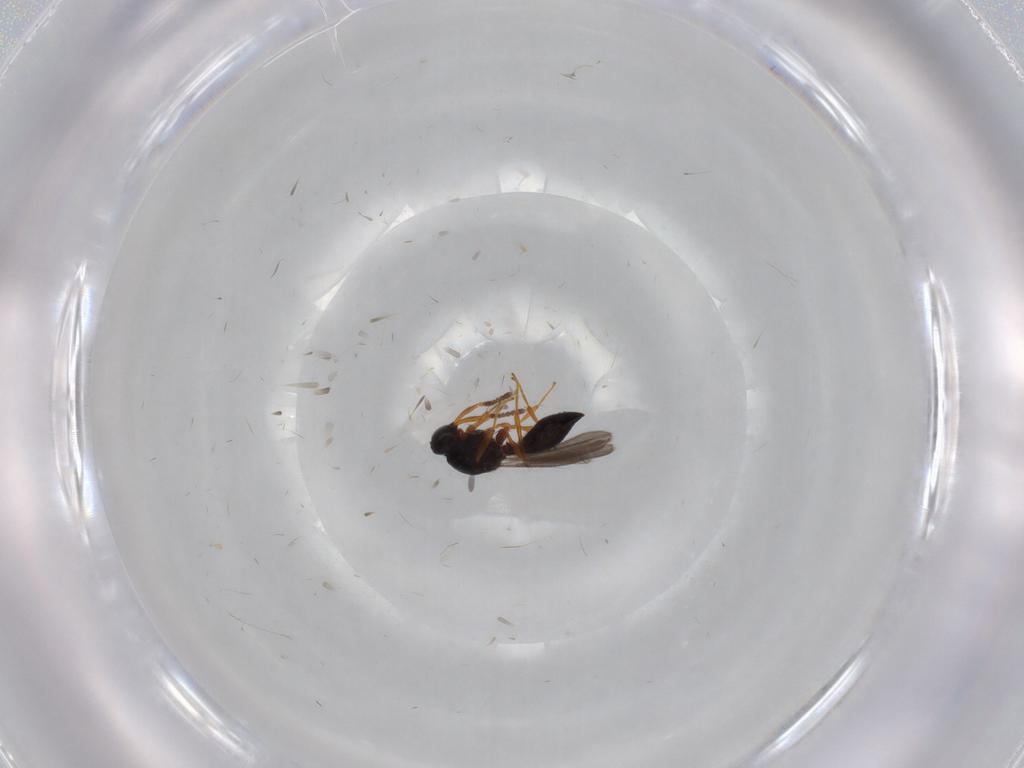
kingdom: Animalia
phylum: Arthropoda
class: Insecta
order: Hymenoptera
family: Platygastridae
